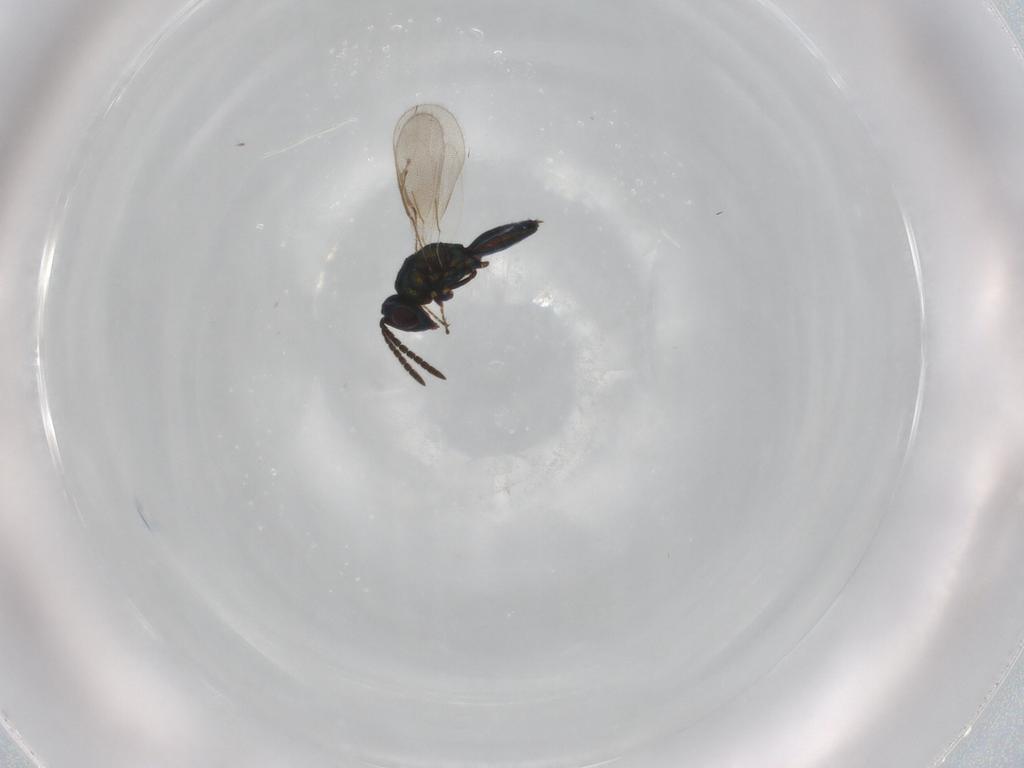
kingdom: Animalia
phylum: Arthropoda
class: Insecta
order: Hymenoptera
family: Pteromalidae
